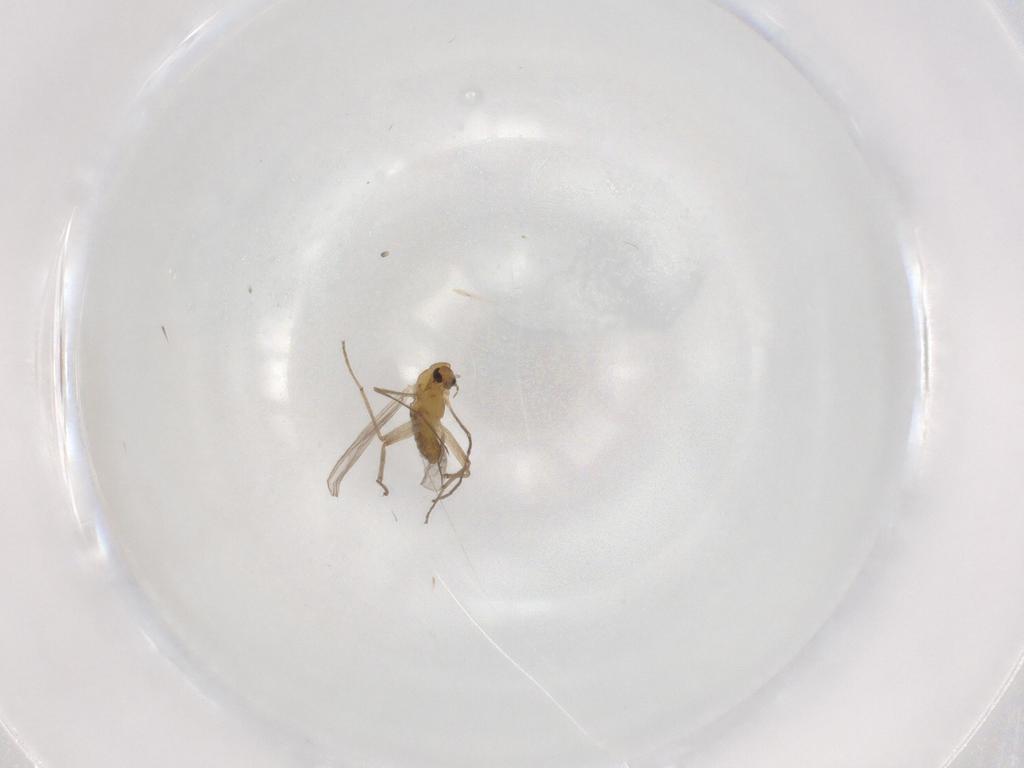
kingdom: Animalia
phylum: Arthropoda
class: Insecta
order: Diptera
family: Chironomidae
